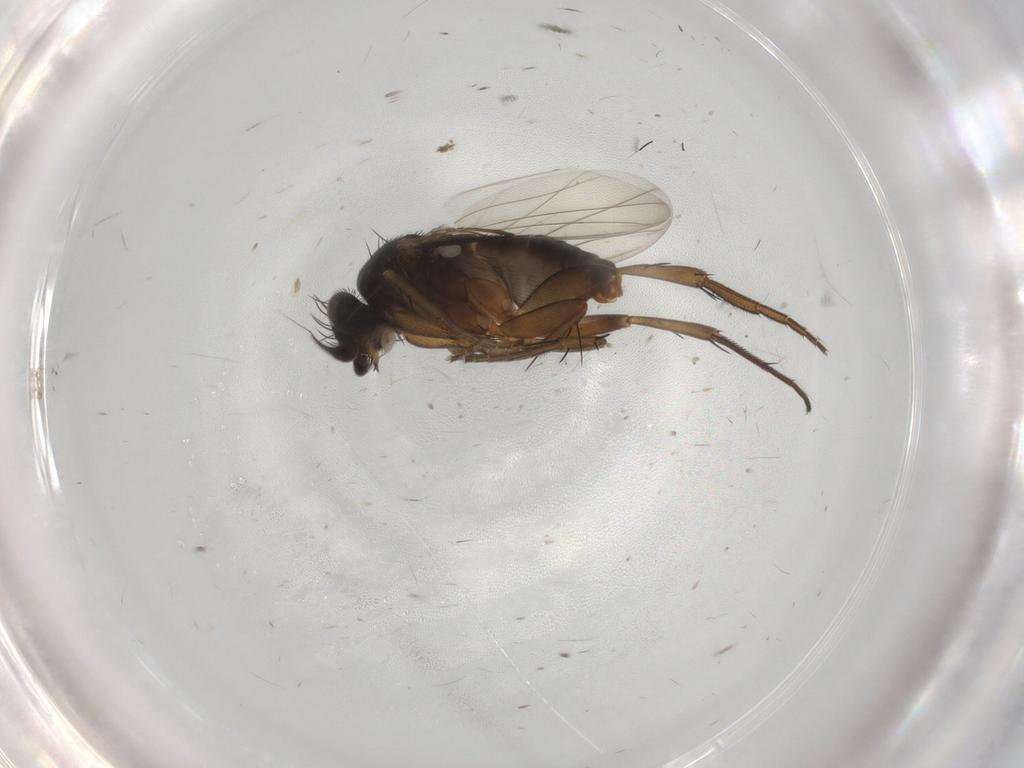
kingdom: Animalia
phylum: Arthropoda
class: Insecta
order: Diptera
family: Phoridae
